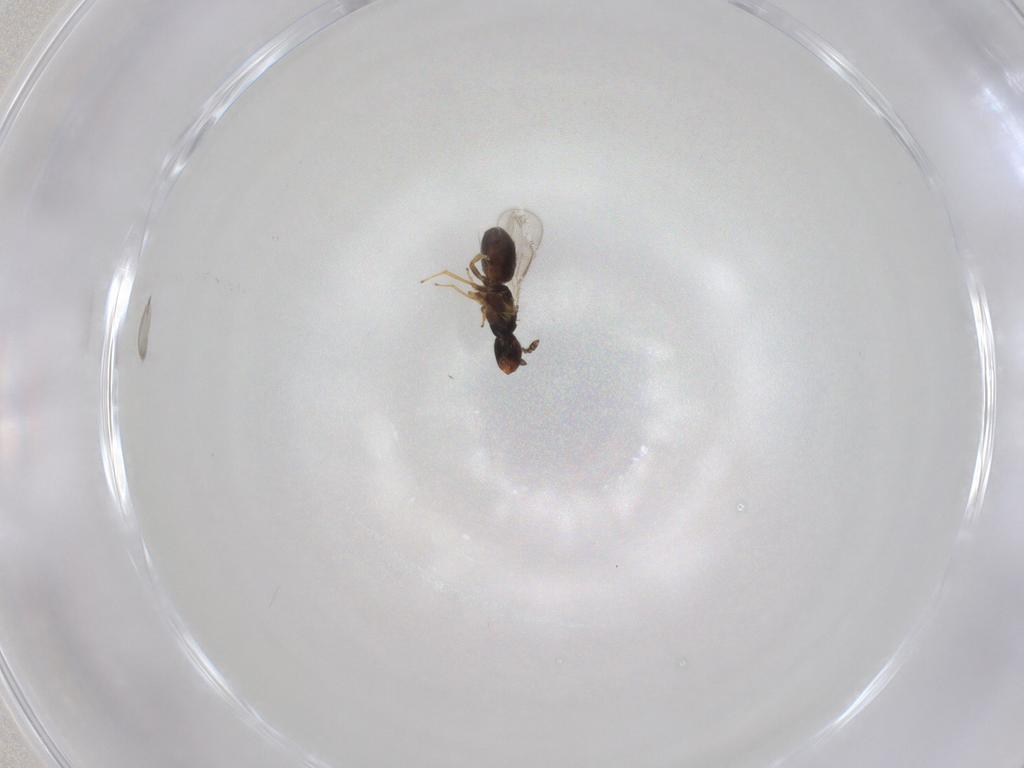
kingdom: Animalia
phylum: Arthropoda
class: Insecta
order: Hymenoptera
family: Eulophidae
